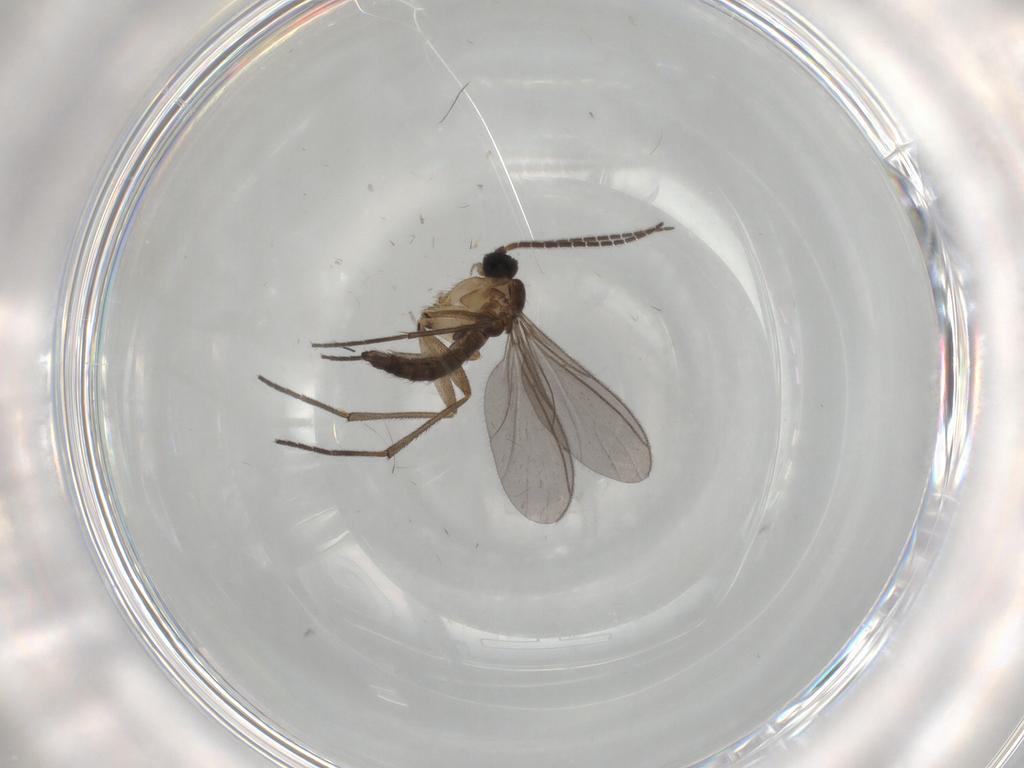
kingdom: Animalia
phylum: Arthropoda
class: Insecta
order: Diptera
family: Sciaridae
